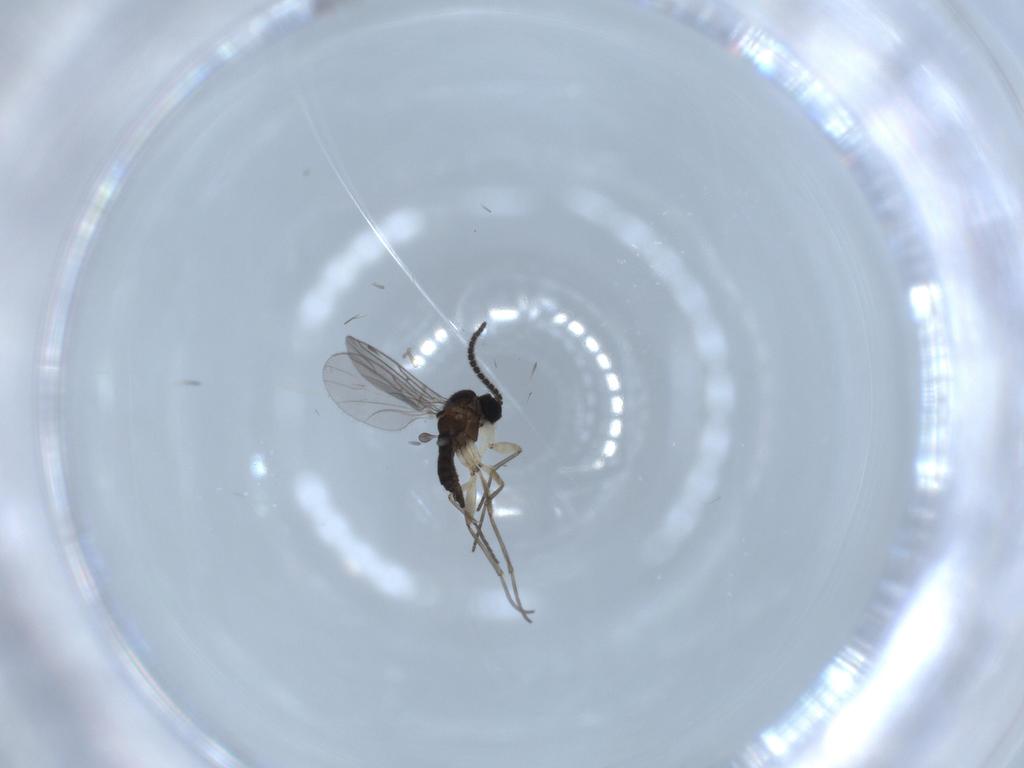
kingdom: Animalia
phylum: Arthropoda
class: Insecta
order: Diptera
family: Sciaridae
